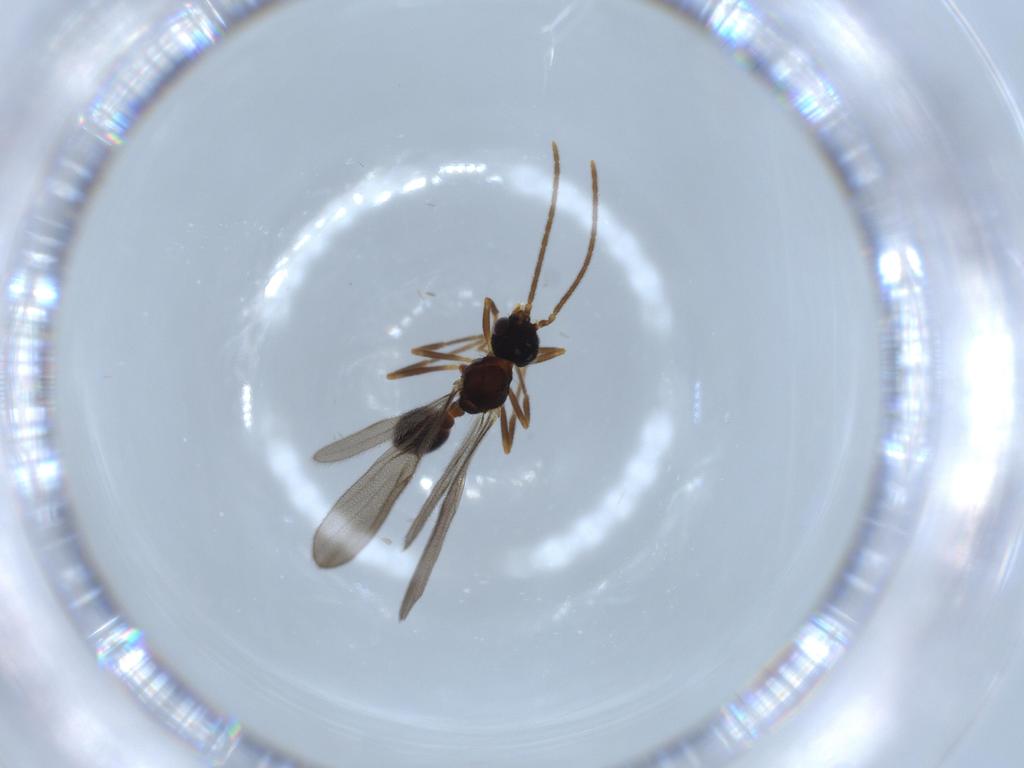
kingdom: Animalia
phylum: Arthropoda
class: Insecta
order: Hymenoptera
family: Formicidae
